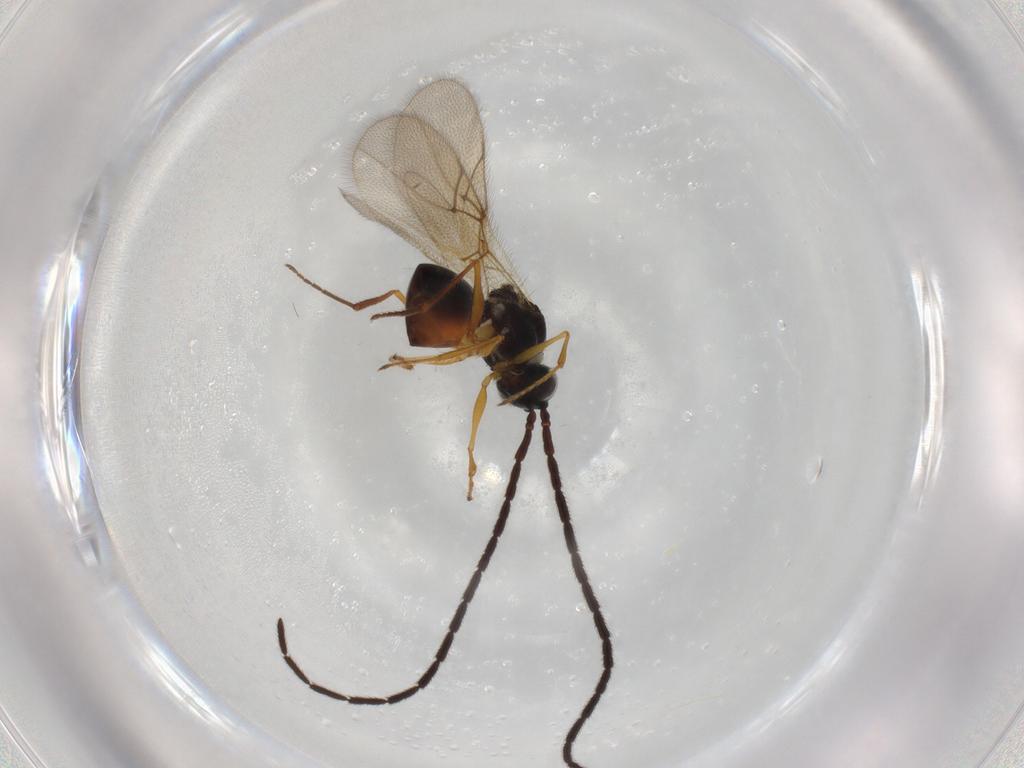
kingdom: Animalia
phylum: Arthropoda
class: Insecta
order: Hymenoptera
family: Figitidae
